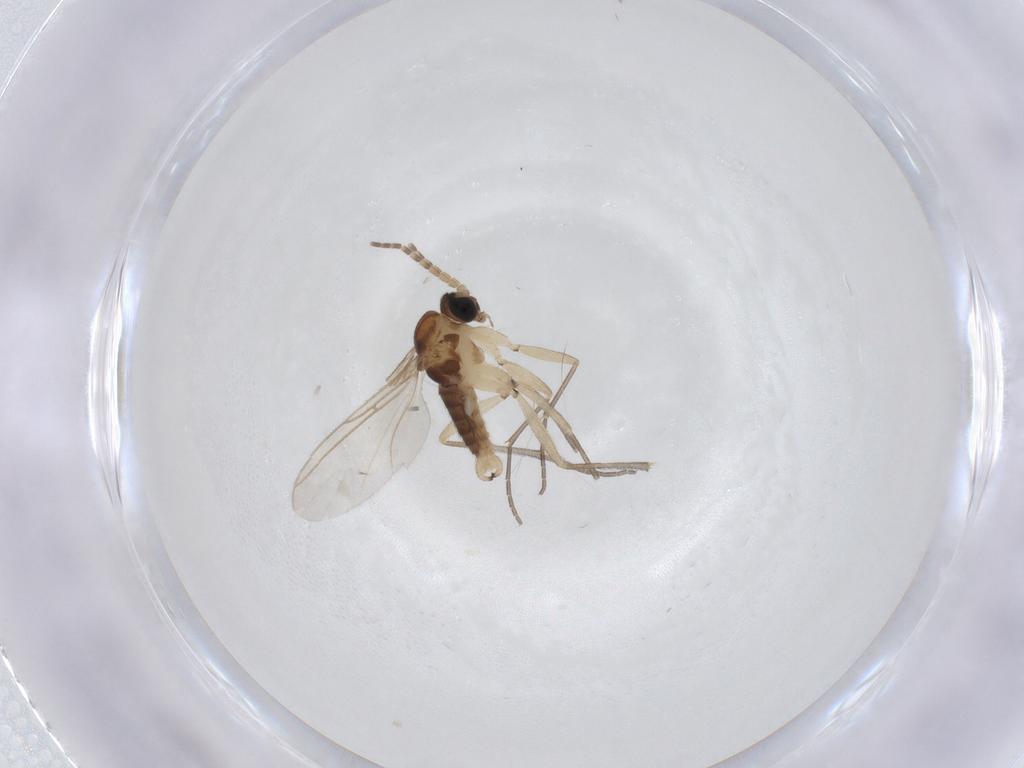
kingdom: Animalia
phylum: Arthropoda
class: Insecta
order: Diptera
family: Sciaridae
